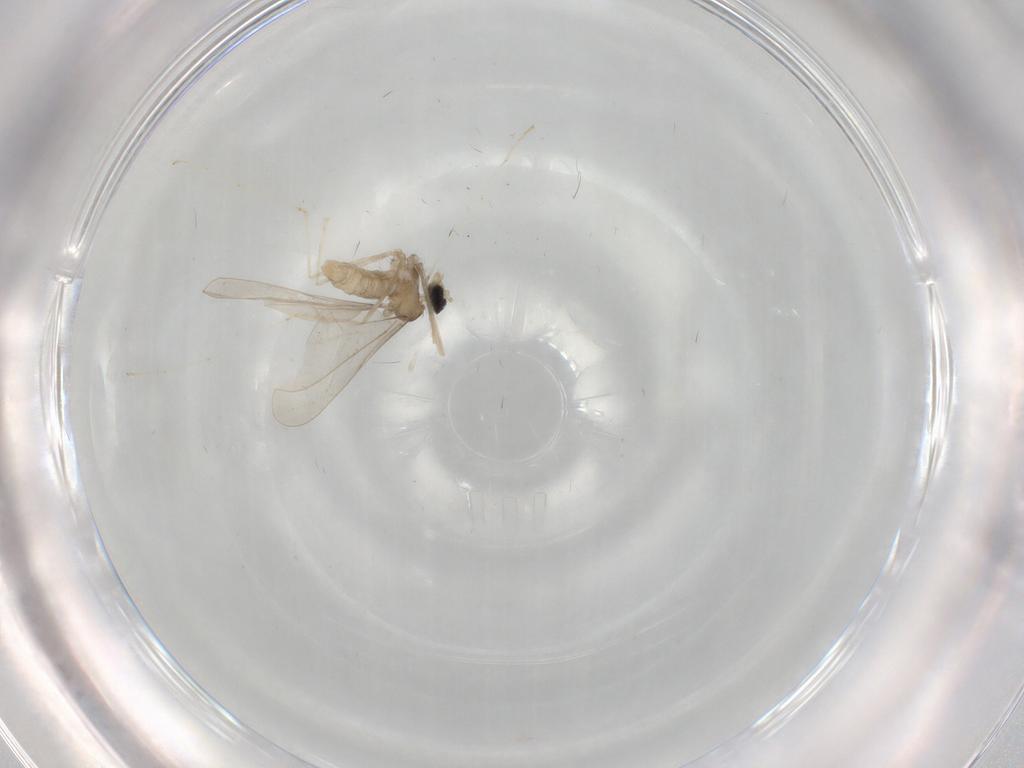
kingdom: Animalia
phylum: Arthropoda
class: Insecta
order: Diptera
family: Cecidomyiidae
